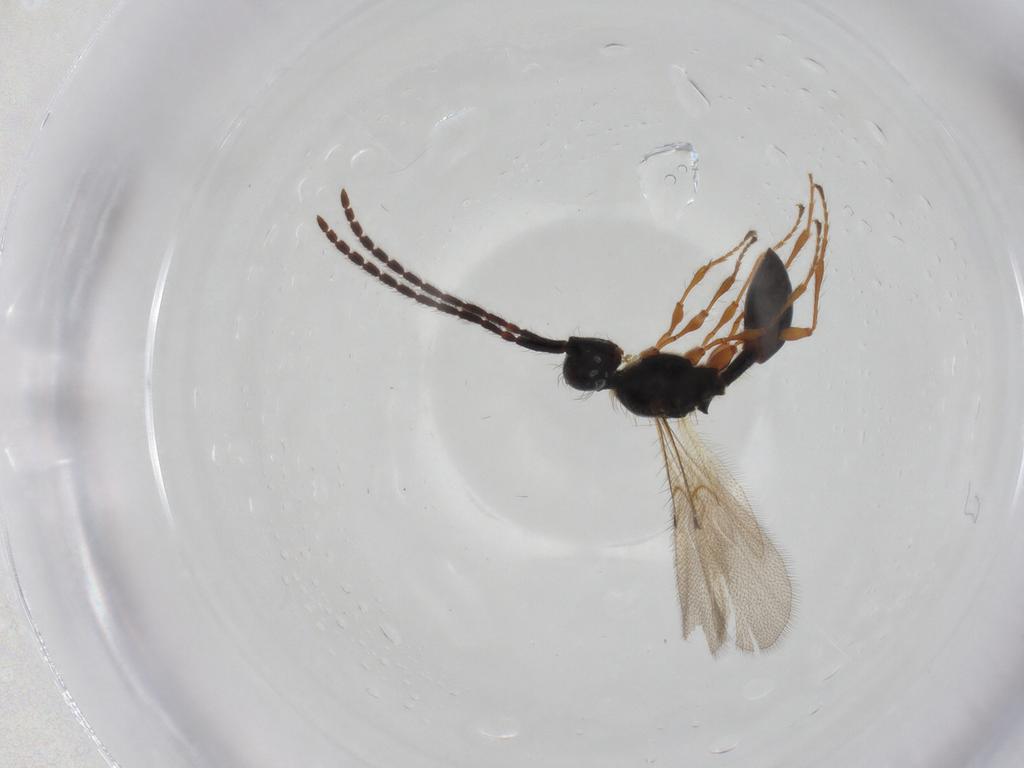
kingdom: Animalia
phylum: Arthropoda
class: Insecta
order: Hymenoptera
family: Diapriidae
